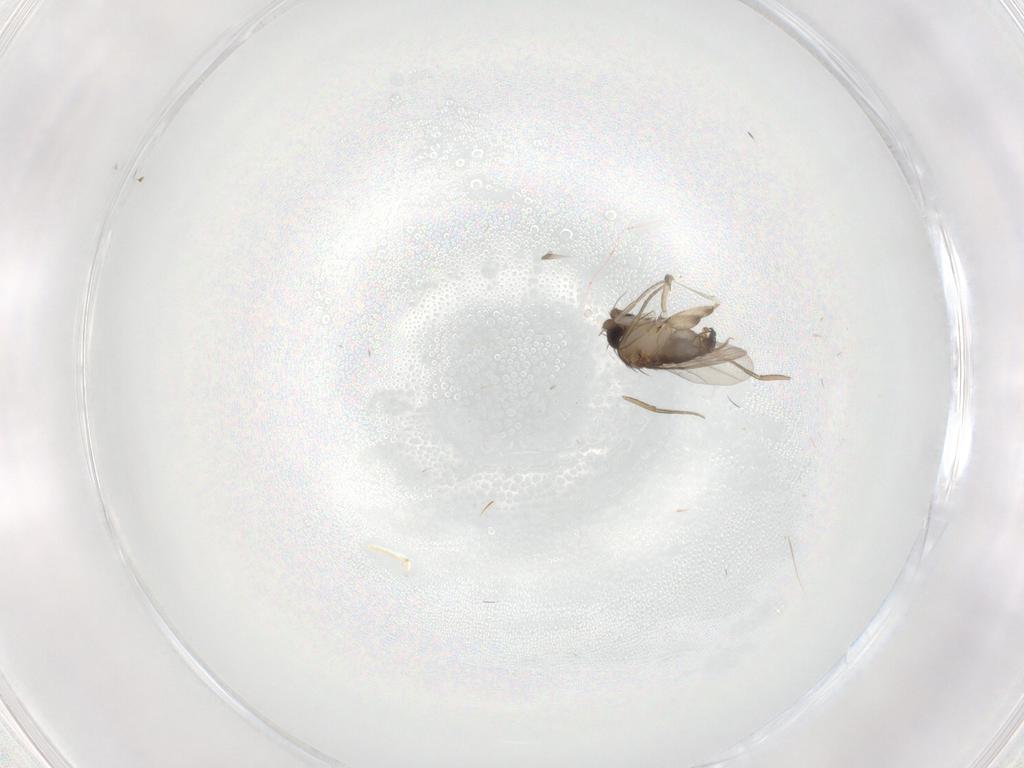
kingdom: Animalia
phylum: Arthropoda
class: Insecta
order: Diptera
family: Phoridae
